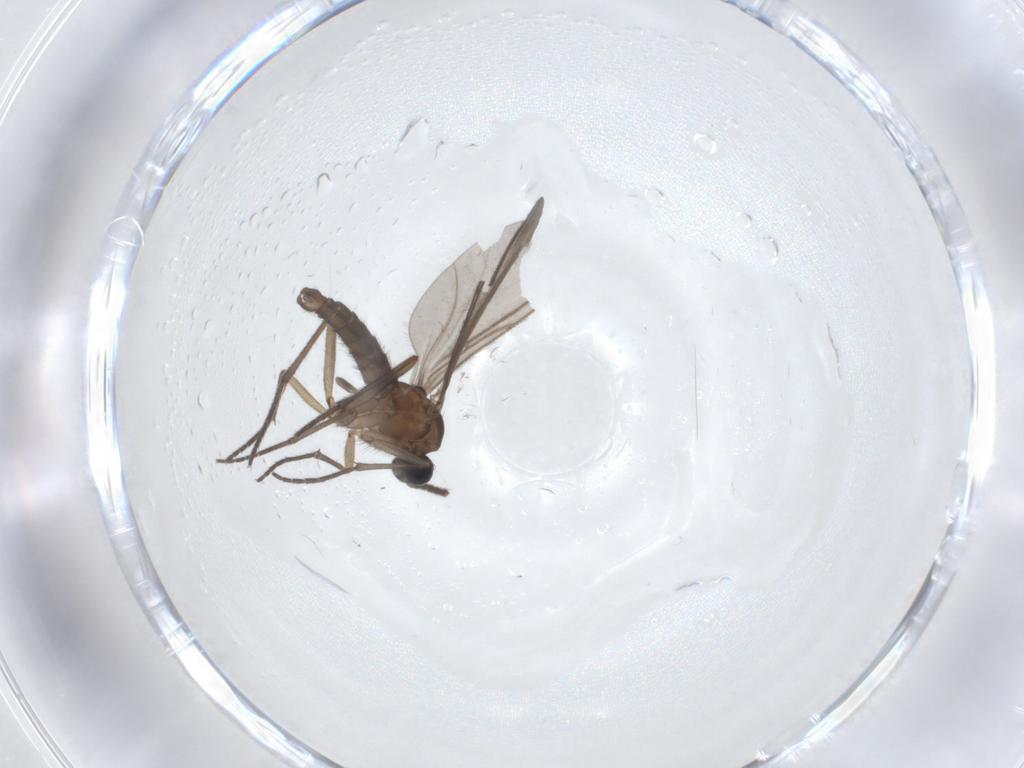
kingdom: Animalia
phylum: Arthropoda
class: Insecta
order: Diptera
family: Sciaridae
